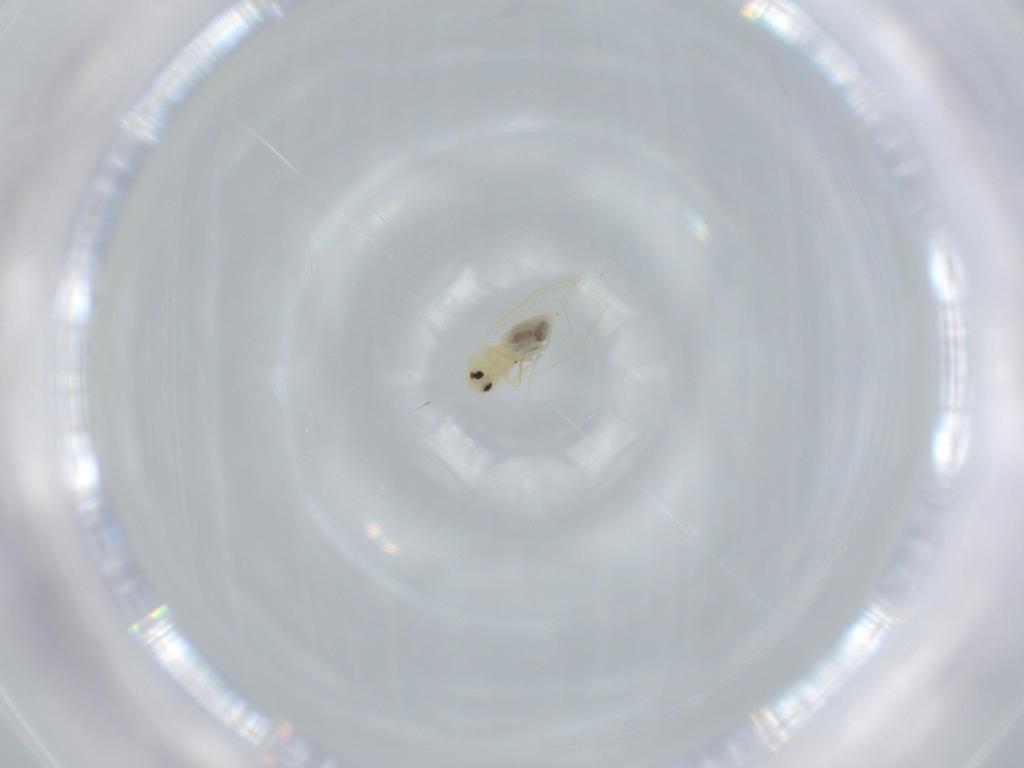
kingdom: Animalia
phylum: Arthropoda
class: Insecta
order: Hemiptera
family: Aleyrodidae
